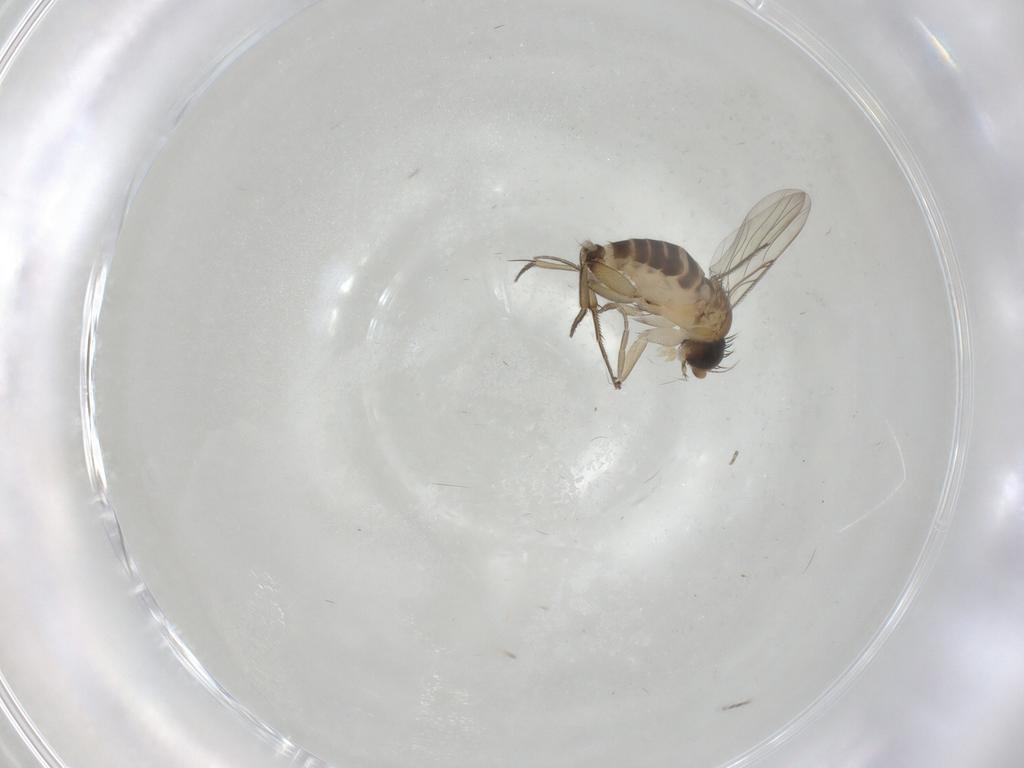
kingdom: Animalia
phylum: Arthropoda
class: Insecta
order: Diptera
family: Phoridae
